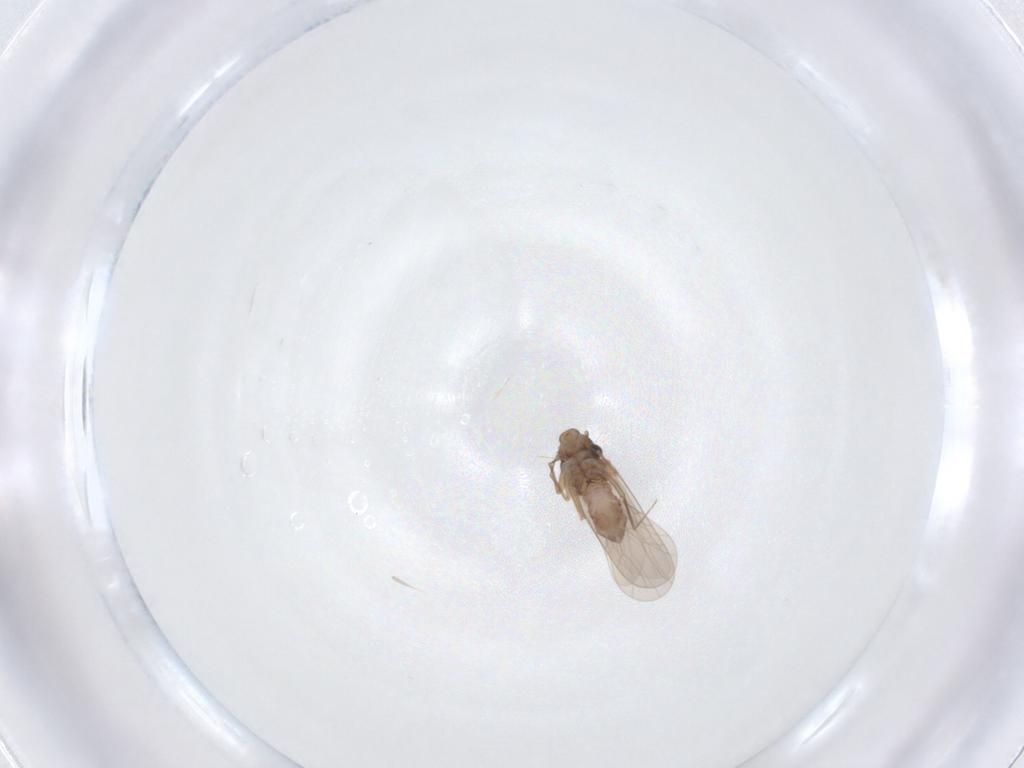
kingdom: Animalia
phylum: Arthropoda
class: Insecta
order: Psocodea
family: Lepidopsocidae
